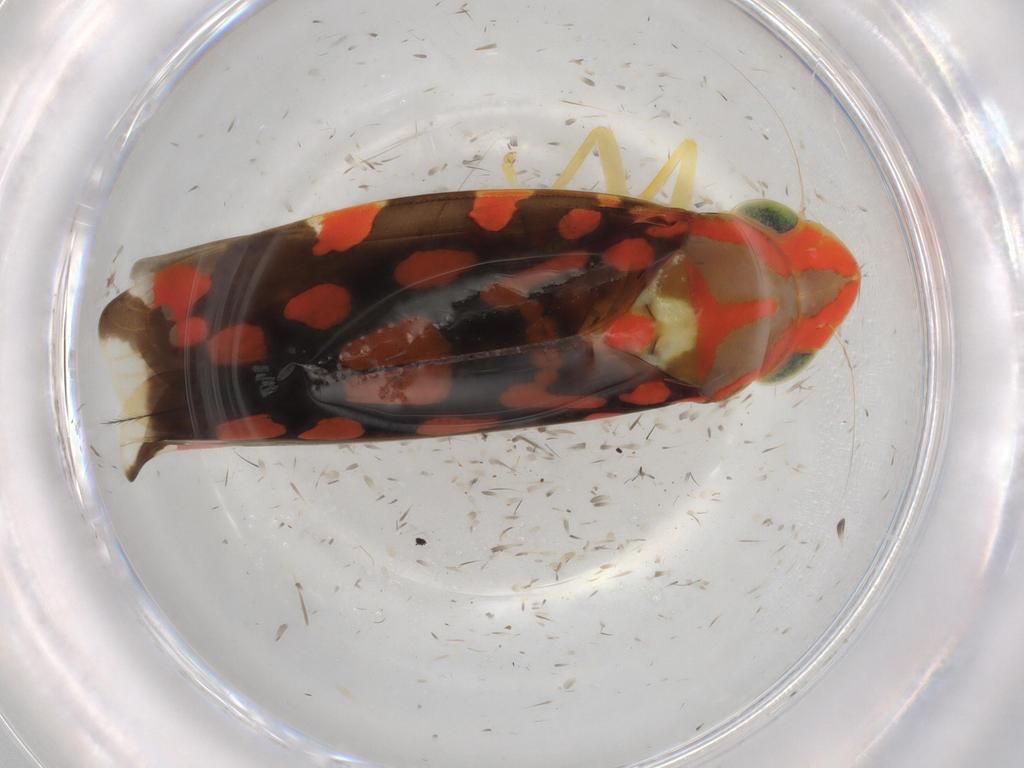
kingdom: Animalia
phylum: Arthropoda
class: Insecta
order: Hemiptera
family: Cicadellidae
